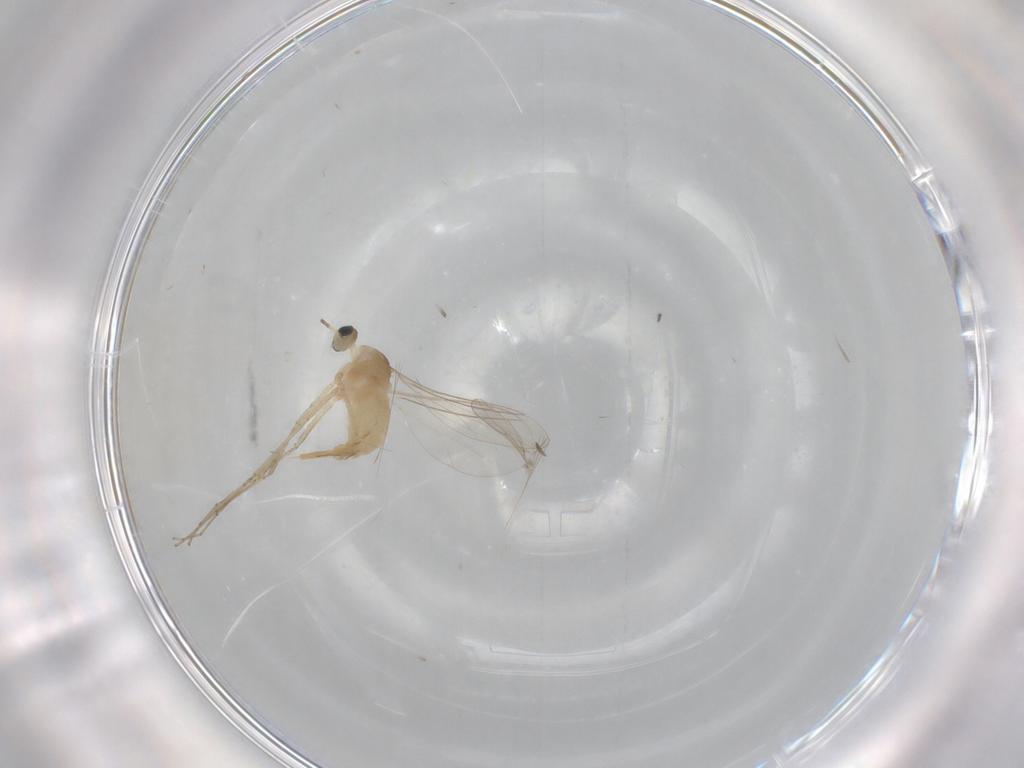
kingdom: Animalia
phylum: Arthropoda
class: Insecta
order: Diptera
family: Cecidomyiidae
